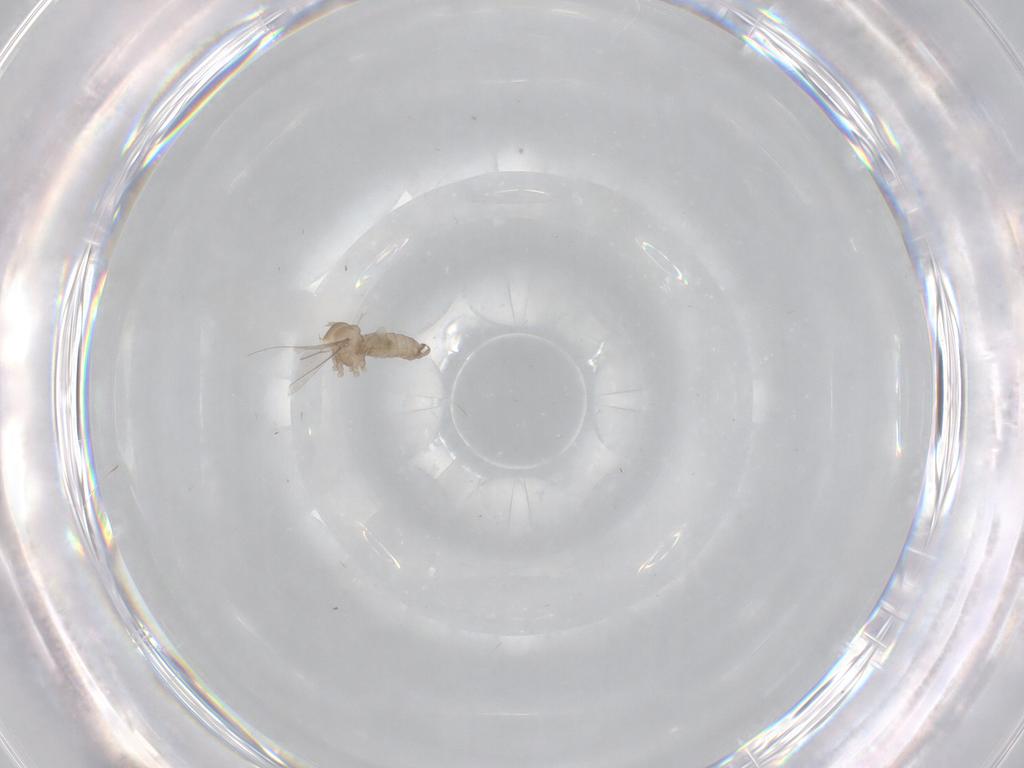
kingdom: Animalia
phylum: Arthropoda
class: Insecta
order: Diptera
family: Cecidomyiidae
